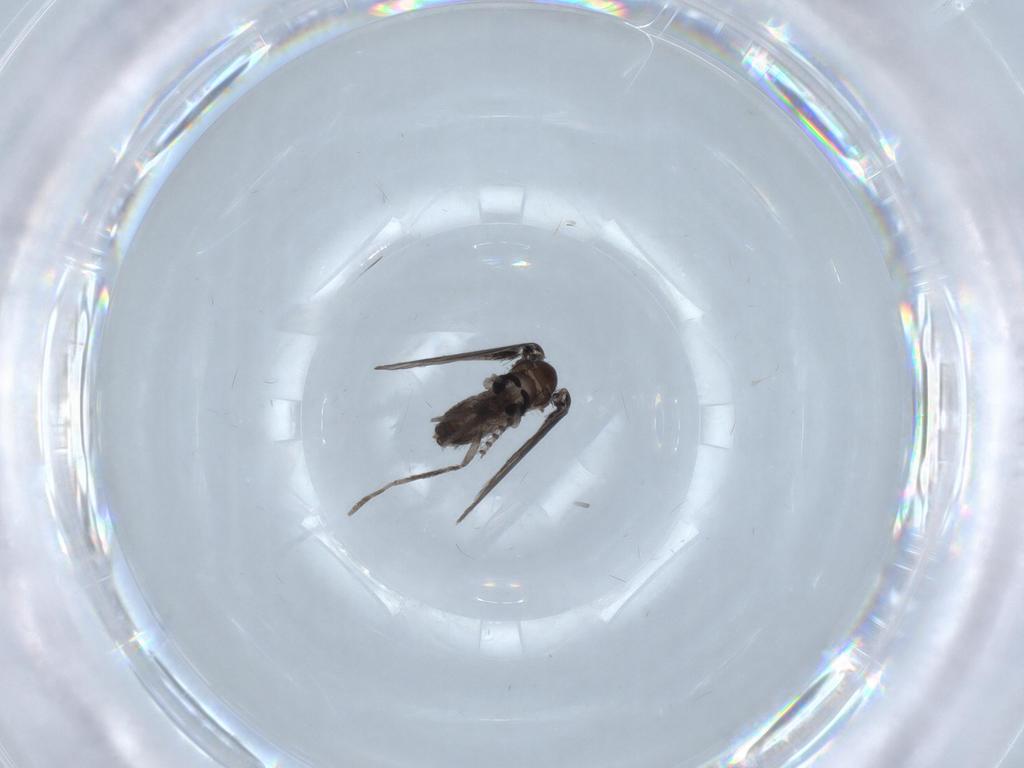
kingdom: Animalia
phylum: Arthropoda
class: Insecta
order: Diptera
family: Psychodidae
